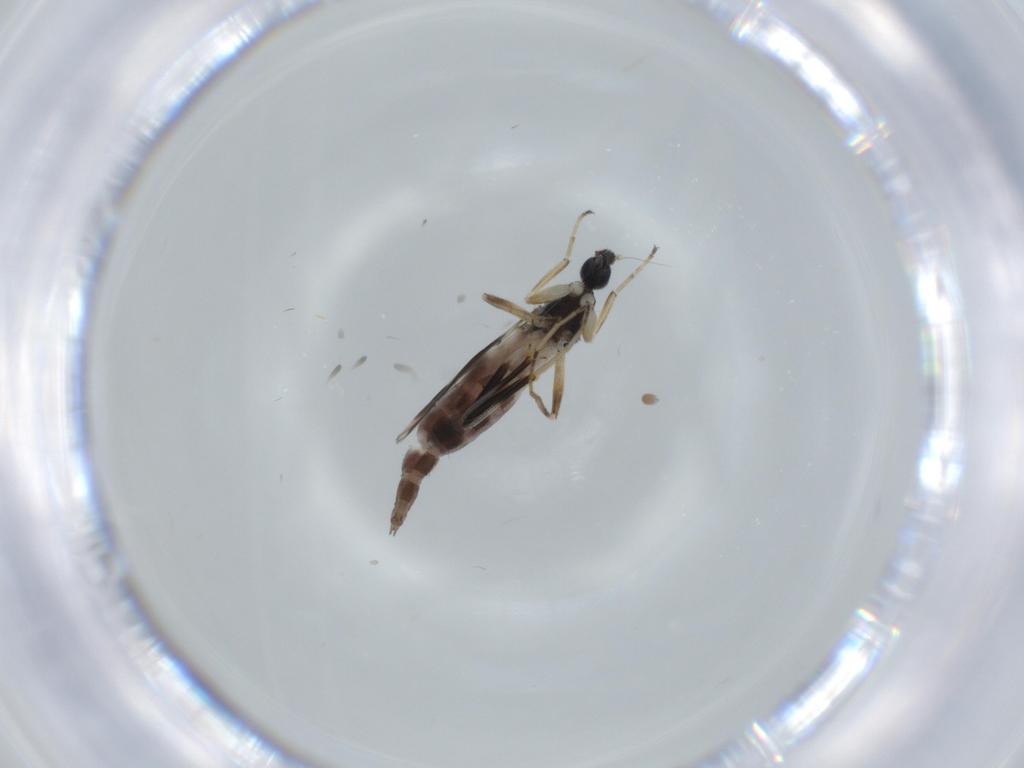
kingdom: Animalia
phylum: Arthropoda
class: Insecta
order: Diptera
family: Hybotidae
